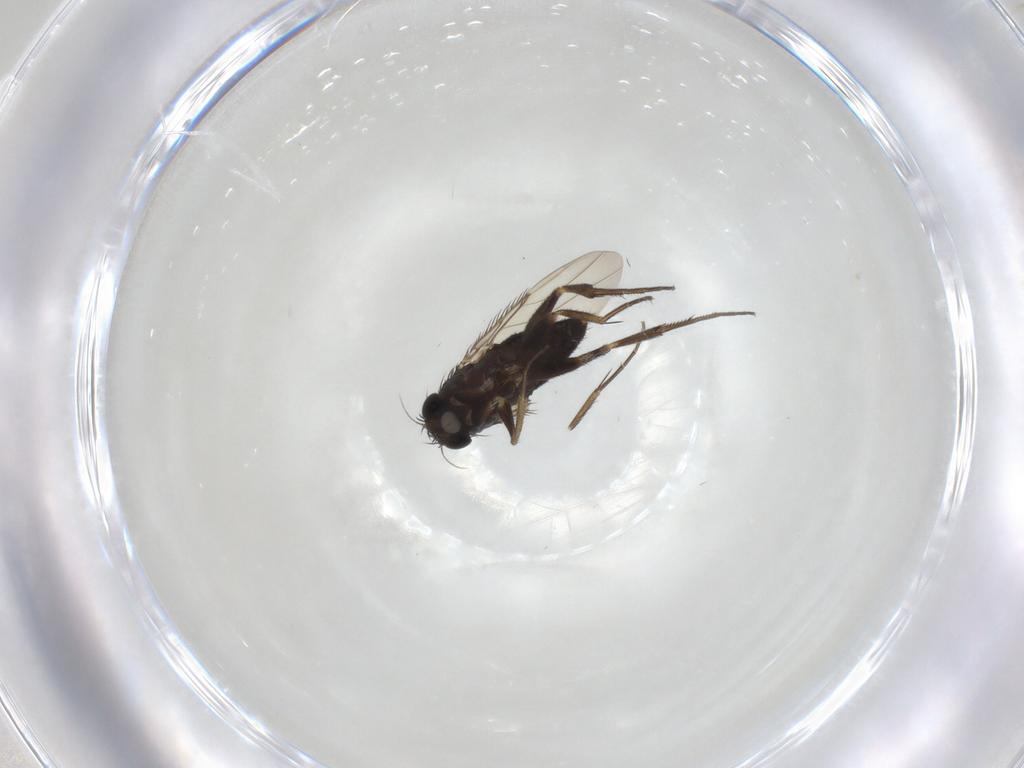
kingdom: Animalia
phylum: Arthropoda
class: Insecta
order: Diptera
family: Phoridae
